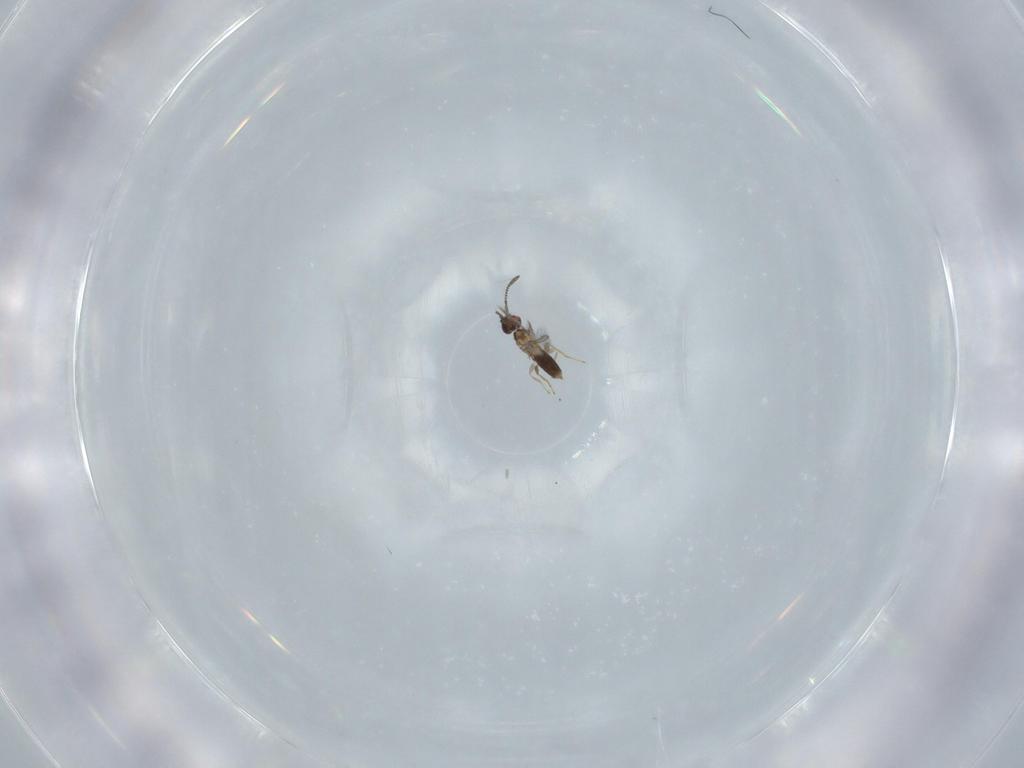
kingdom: Animalia
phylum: Arthropoda
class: Insecta
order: Hymenoptera
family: Mymaridae
